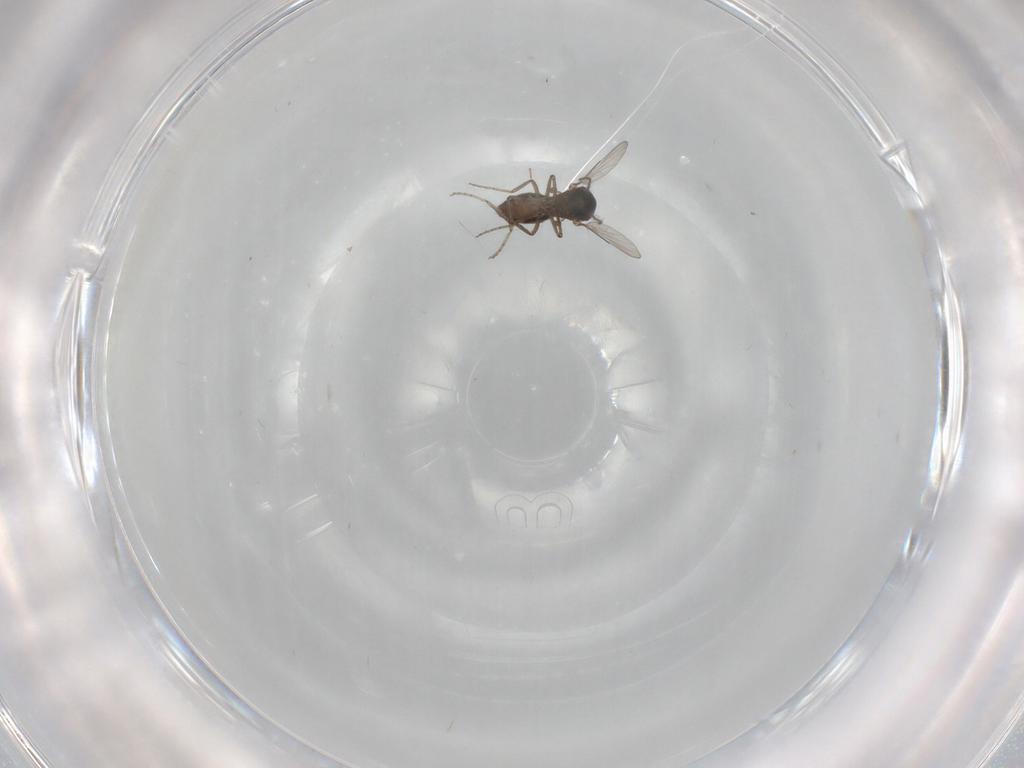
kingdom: Animalia
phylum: Arthropoda
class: Insecta
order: Diptera
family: Ceratopogonidae
